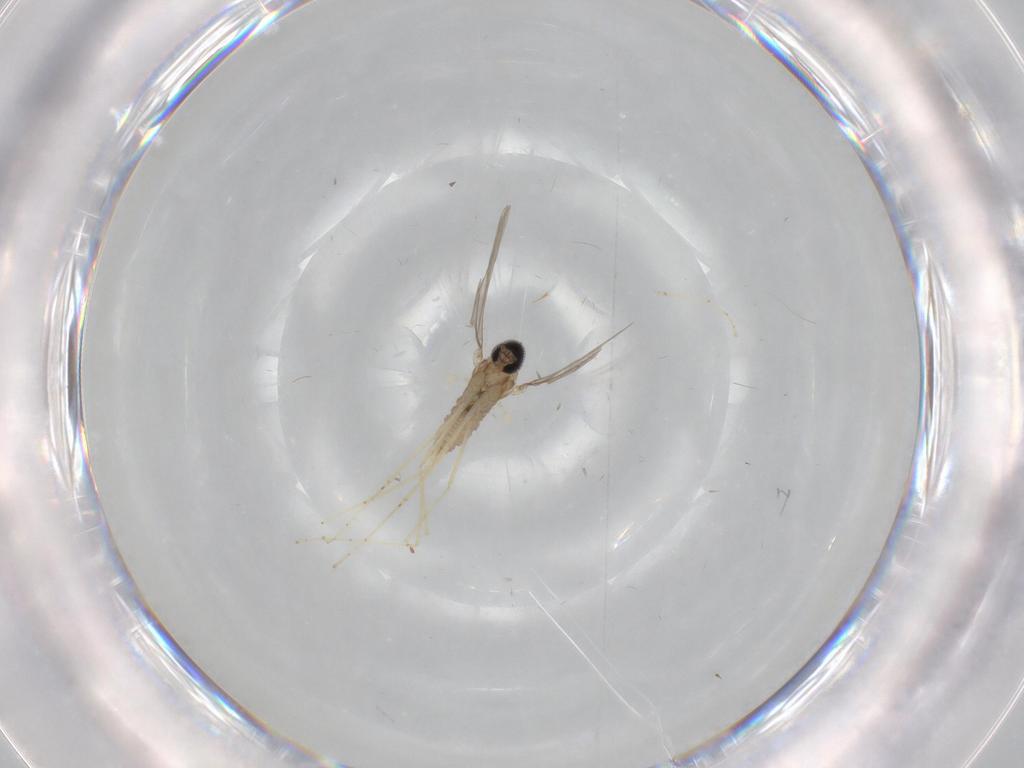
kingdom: Animalia
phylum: Arthropoda
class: Insecta
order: Diptera
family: Cecidomyiidae
